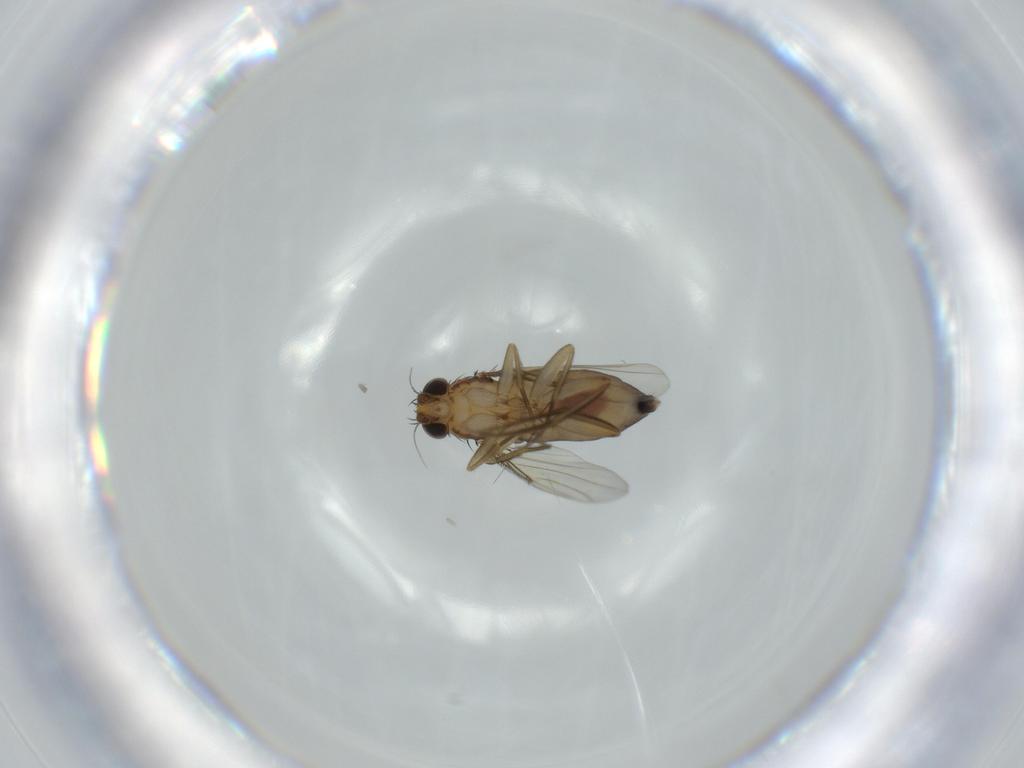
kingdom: Animalia
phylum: Arthropoda
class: Insecta
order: Diptera
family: Phoridae
